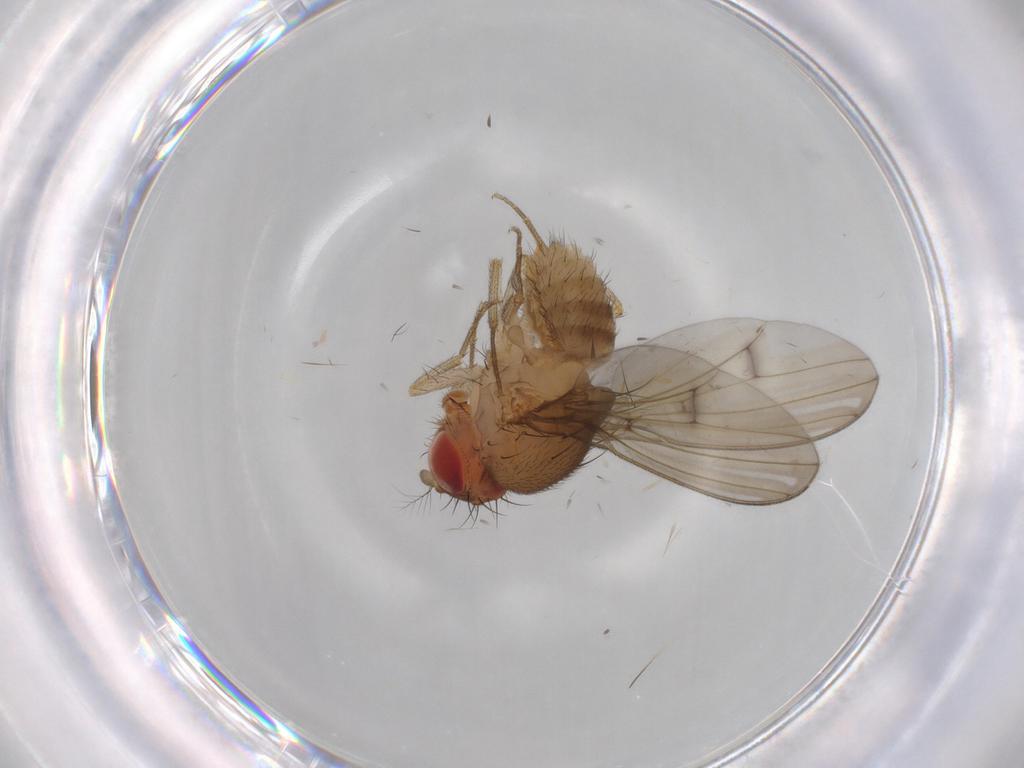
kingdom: Animalia
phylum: Arthropoda
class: Insecta
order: Diptera
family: Drosophilidae
